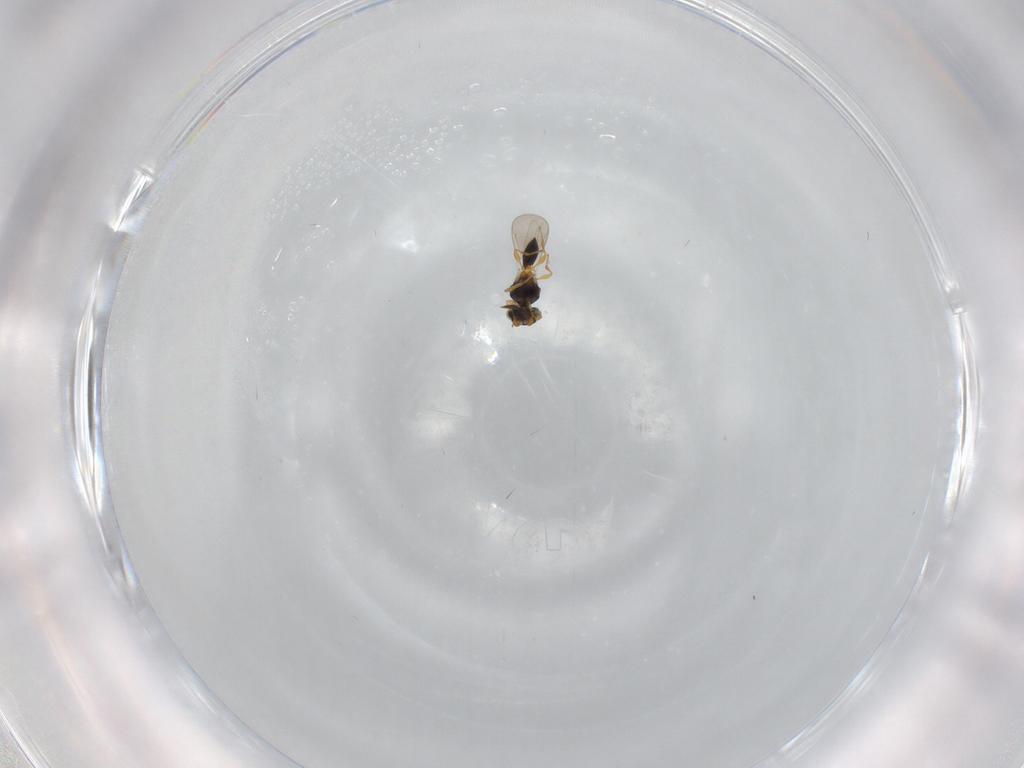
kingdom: Animalia
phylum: Arthropoda
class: Insecta
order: Hymenoptera
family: Platygastridae
